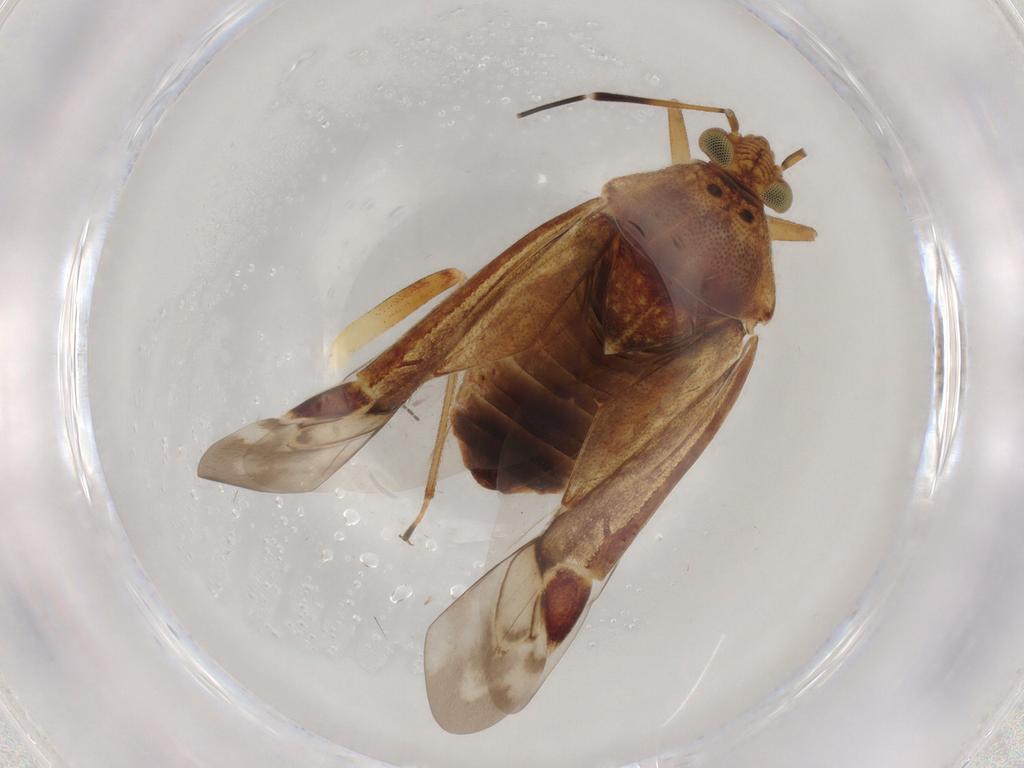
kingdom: Animalia
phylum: Arthropoda
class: Insecta
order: Hemiptera
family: Miridae
